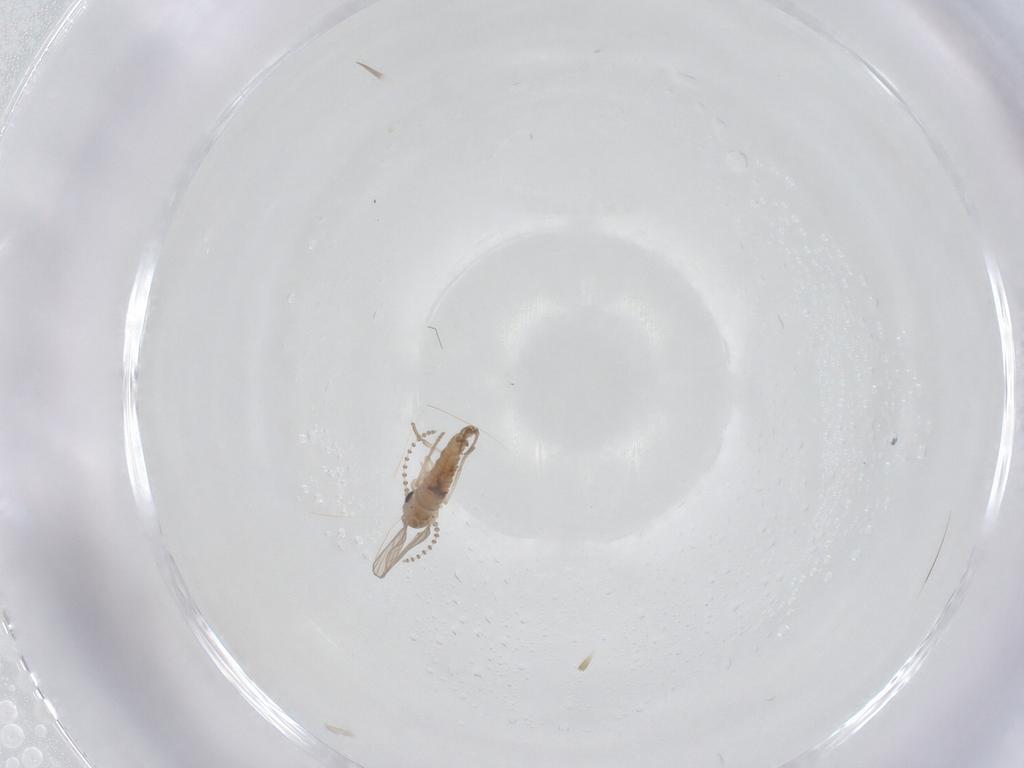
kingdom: Animalia
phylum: Arthropoda
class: Insecta
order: Diptera
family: Psychodidae
